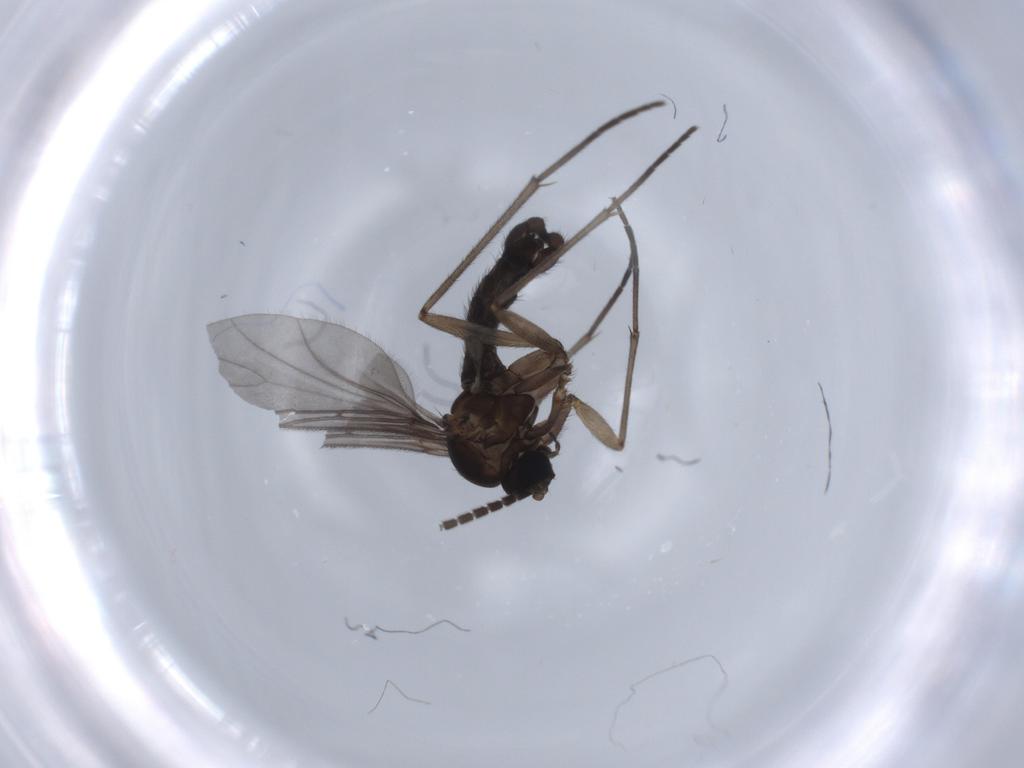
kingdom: Animalia
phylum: Arthropoda
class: Insecta
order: Diptera
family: Sciaridae
